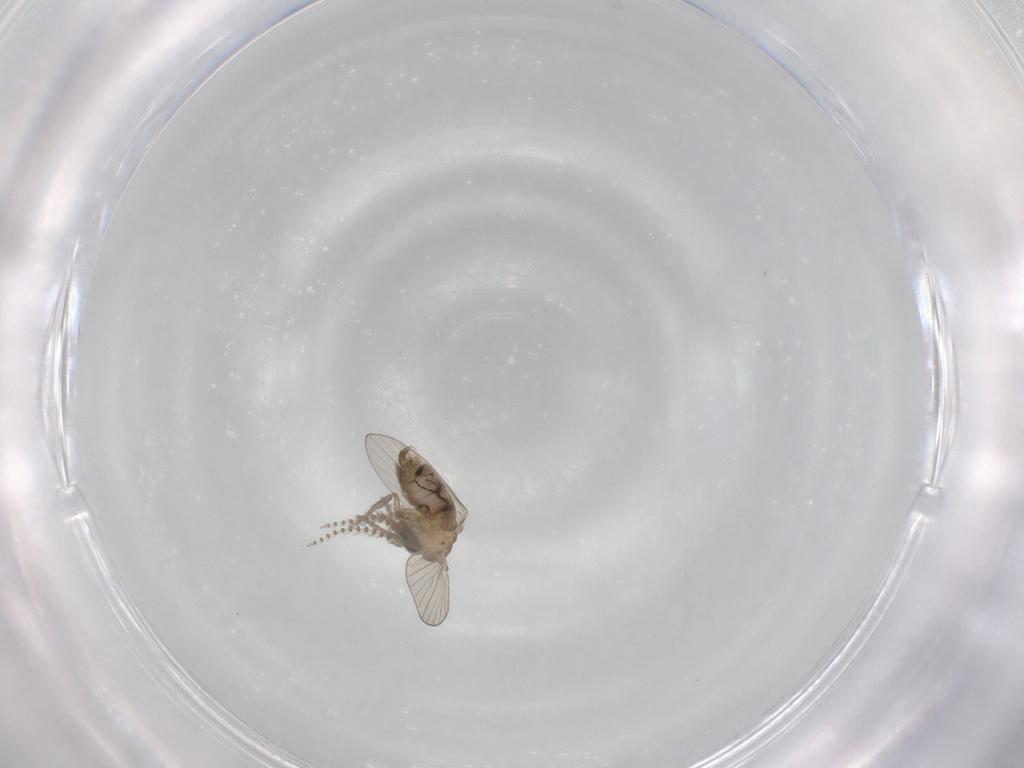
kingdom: Animalia
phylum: Arthropoda
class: Insecta
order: Diptera
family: Psychodidae
